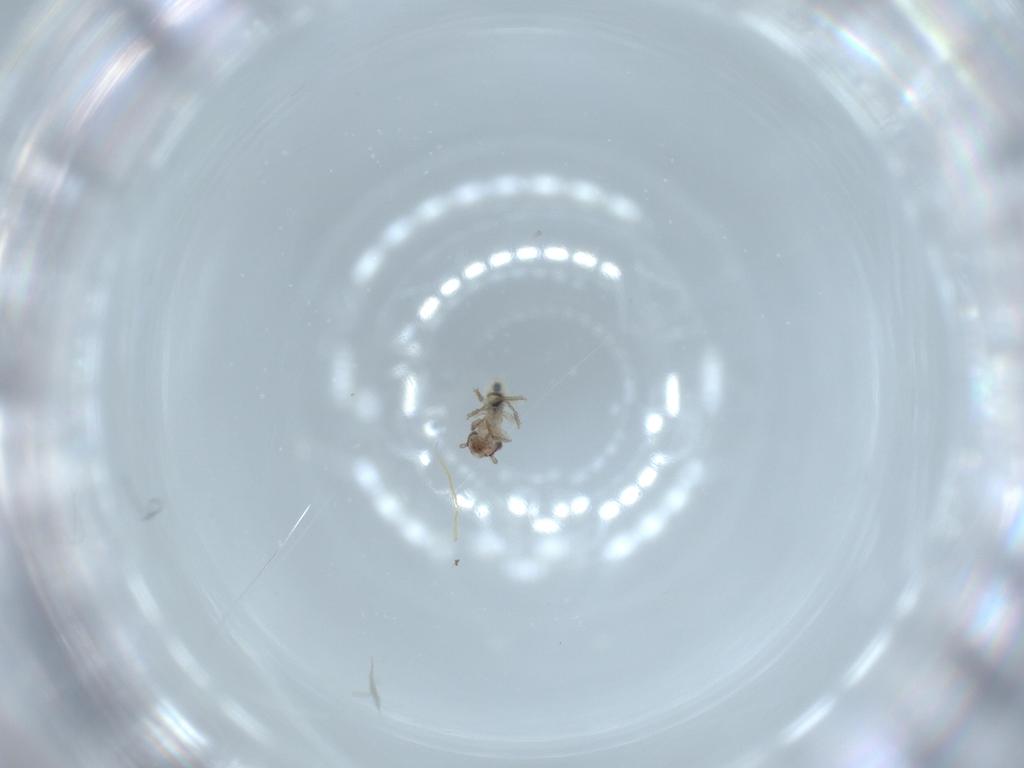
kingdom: Animalia
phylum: Arthropoda
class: Insecta
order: Psocodea
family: Lepidopsocidae
